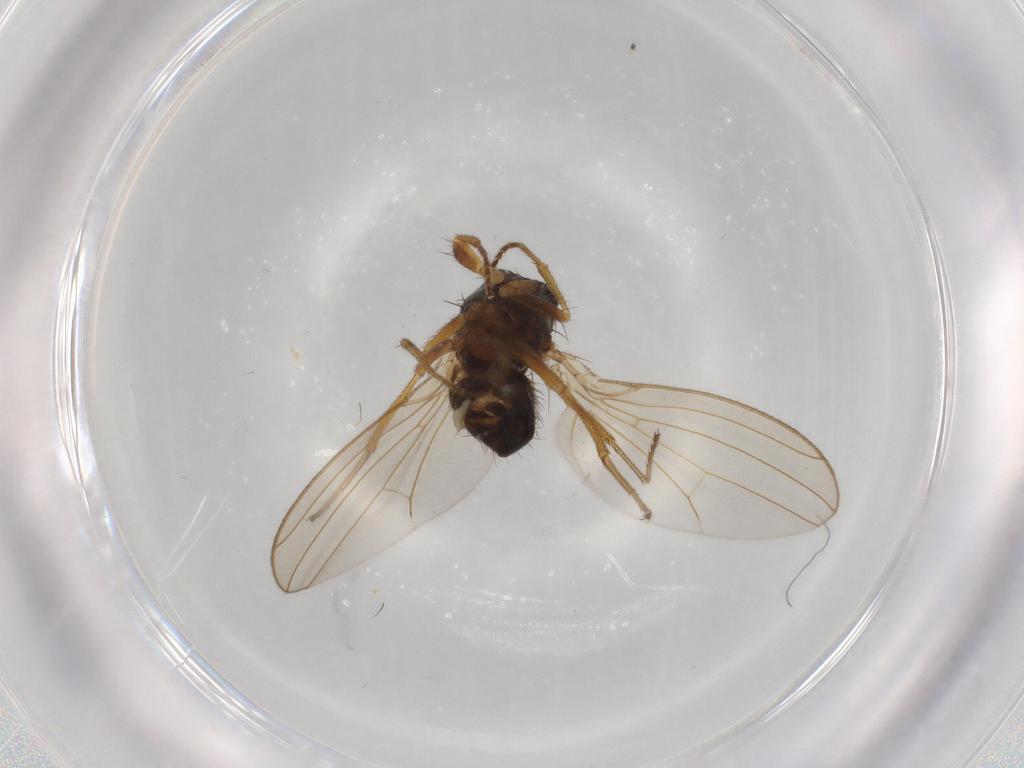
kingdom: Animalia
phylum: Arthropoda
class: Insecta
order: Diptera
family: Drosophilidae
